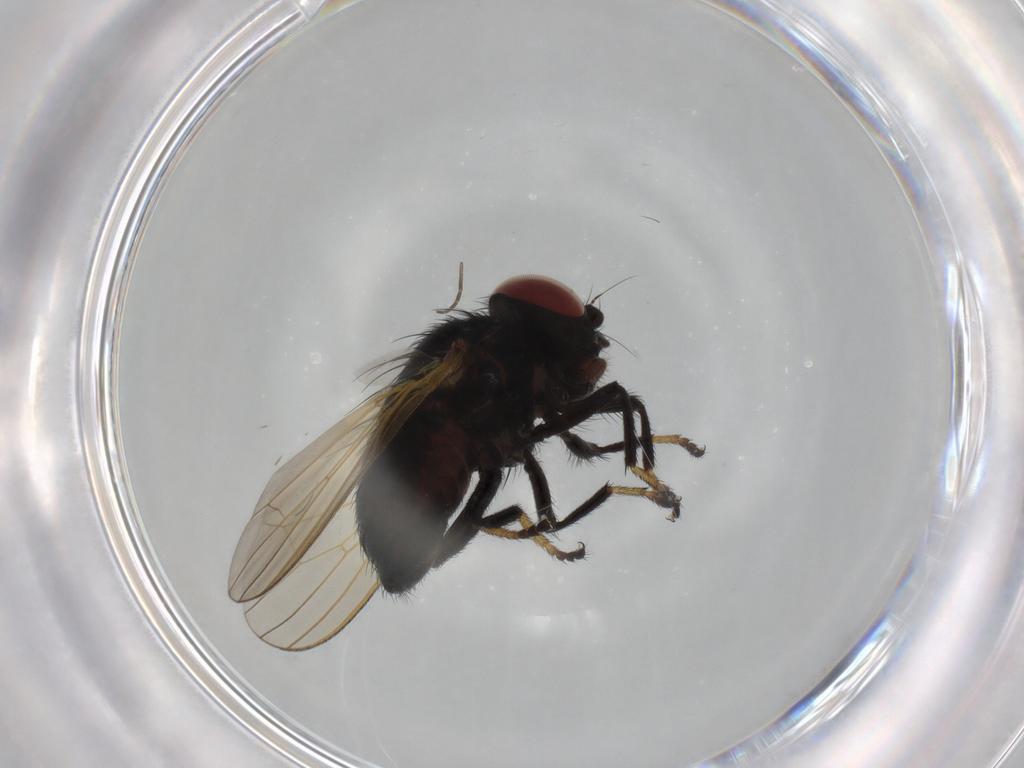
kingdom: Animalia
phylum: Arthropoda
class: Insecta
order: Diptera
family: Lonchaeidae
